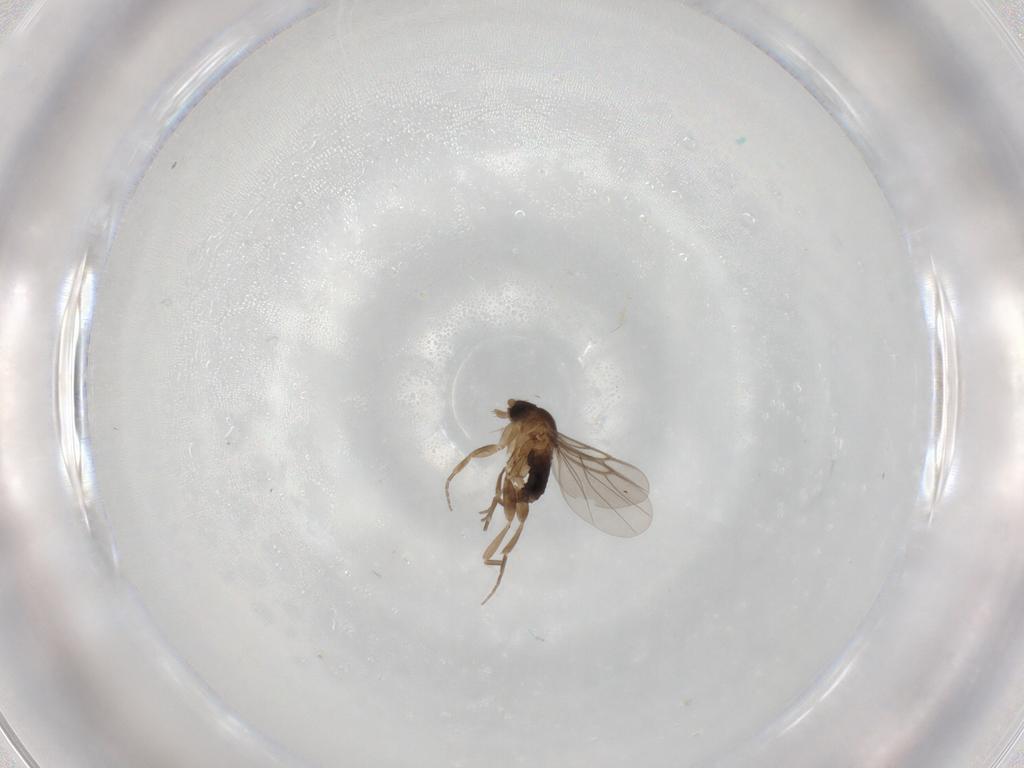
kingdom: Animalia
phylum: Arthropoda
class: Insecta
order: Diptera
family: Phoridae
